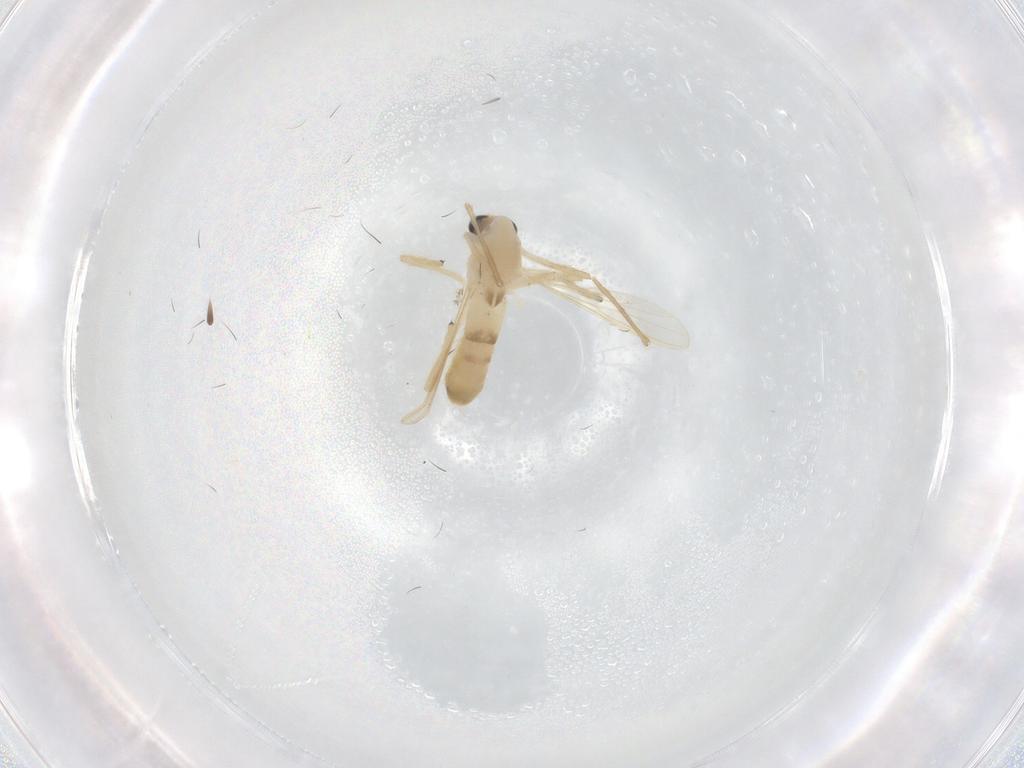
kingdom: Animalia
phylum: Arthropoda
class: Insecta
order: Diptera
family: Chironomidae
